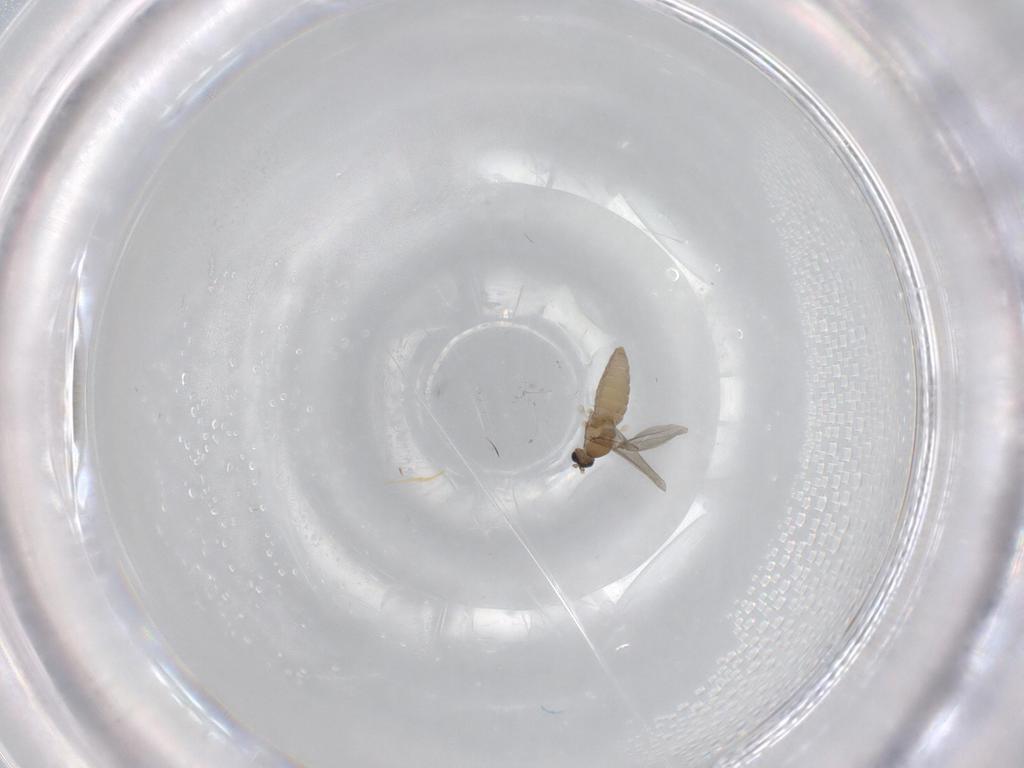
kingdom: Animalia
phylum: Arthropoda
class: Insecta
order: Diptera
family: Cecidomyiidae
